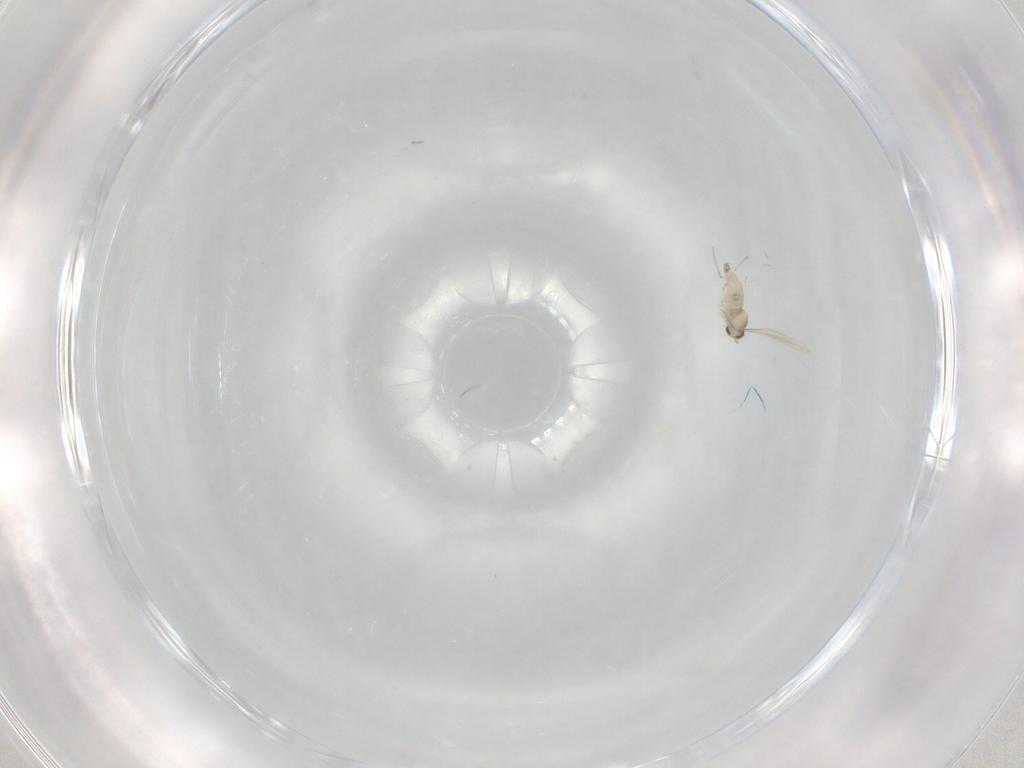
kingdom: Animalia
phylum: Arthropoda
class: Insecta
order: Diptera
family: Cecidomyiidae
